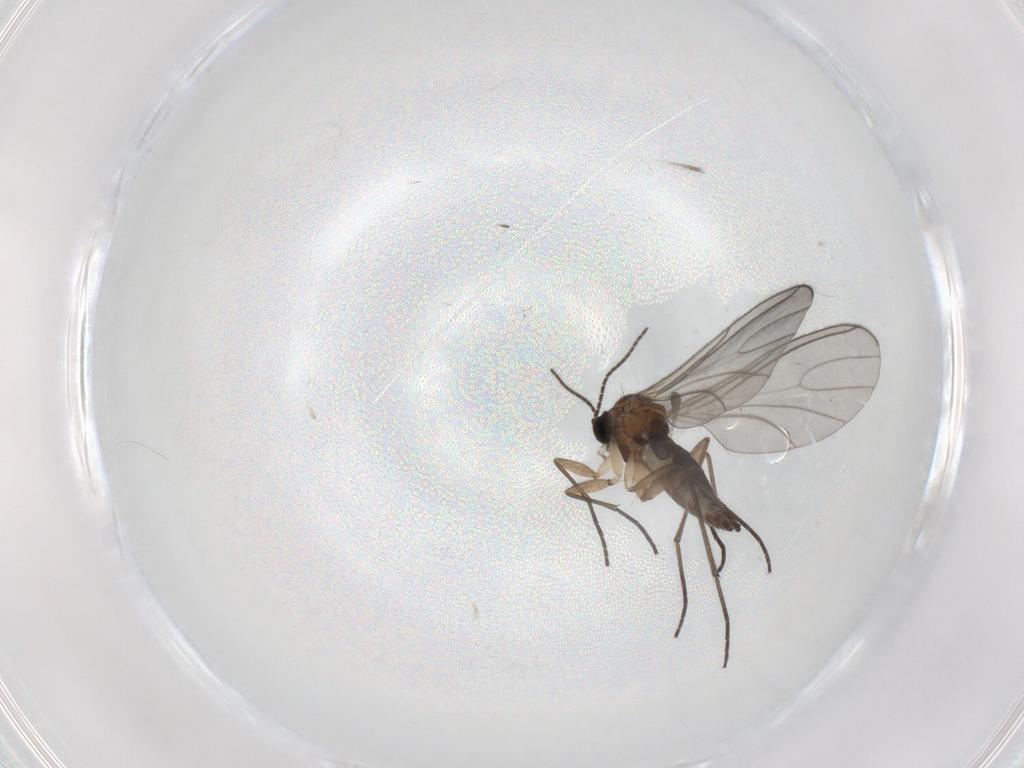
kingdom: Animalia
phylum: Arthropoda
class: Insecta
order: Diptera
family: Sciaridae
